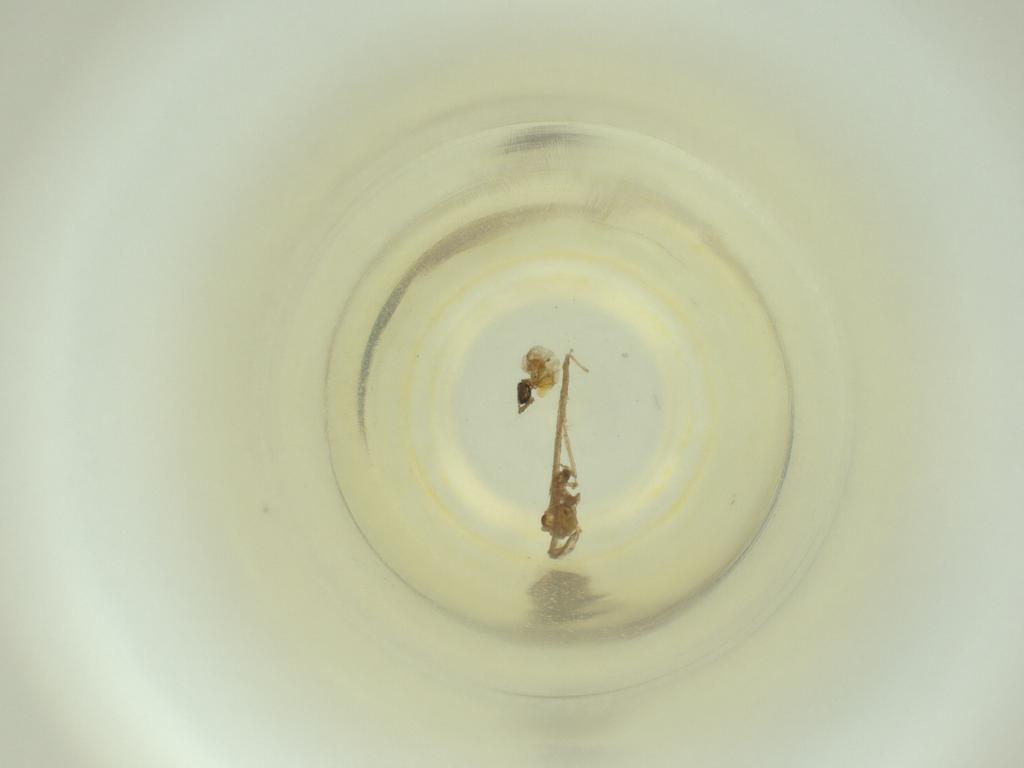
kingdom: Animalia
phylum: Arthropoda
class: Insecta
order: Diptera
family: Cecidomyiidae
